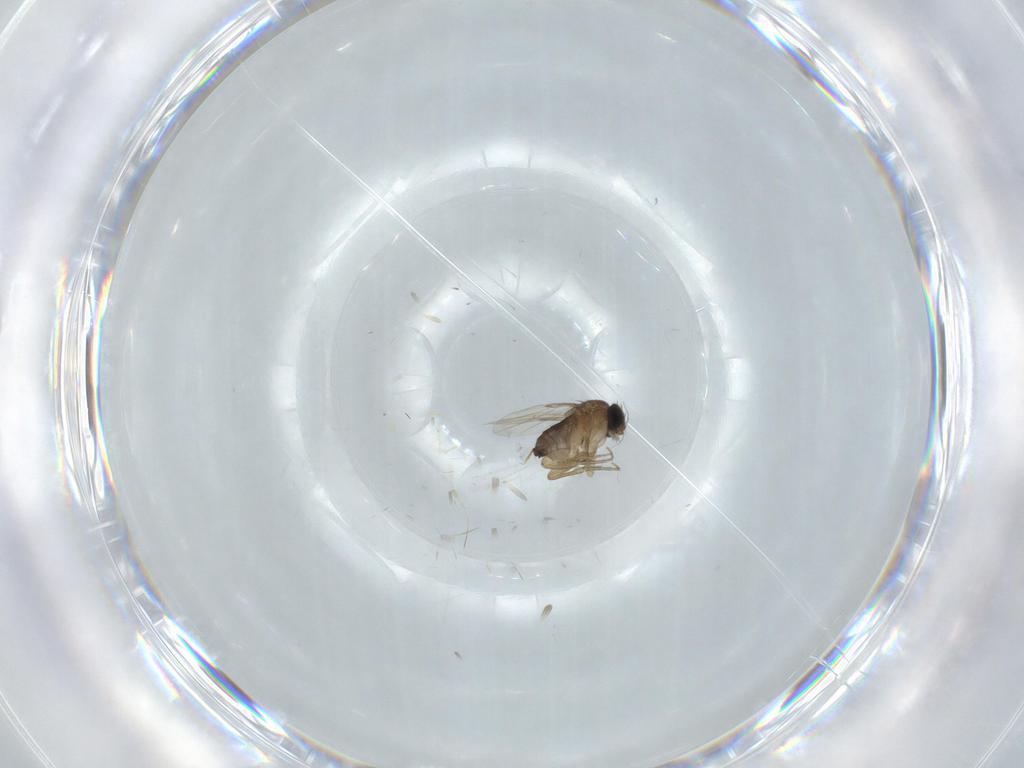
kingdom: Animalia
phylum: Arthropoda
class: Insecta
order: Diptera
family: Phoridae
